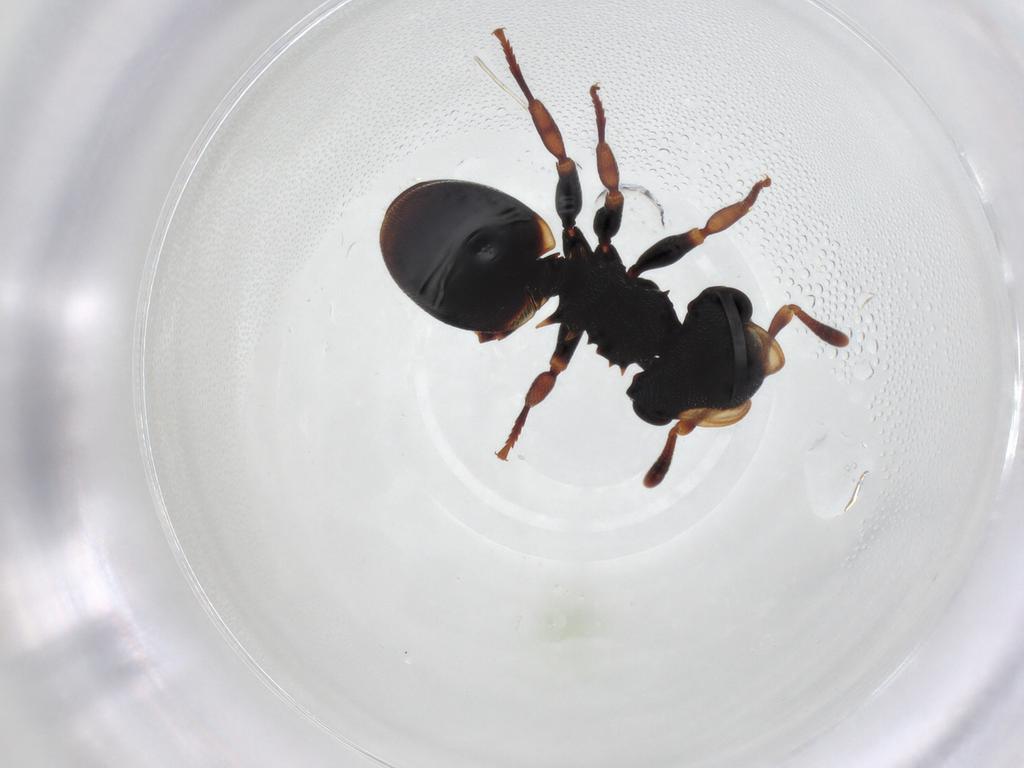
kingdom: Animalia
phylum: Arthropoda
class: Insecta
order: Hymenoptera
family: Formicidae
